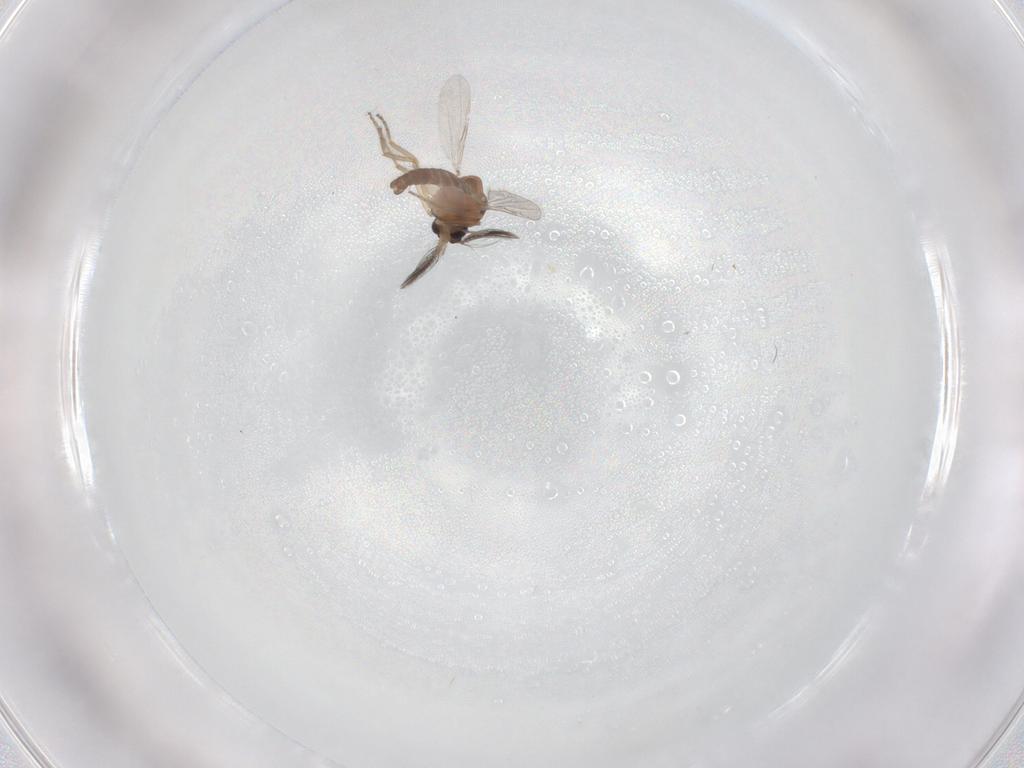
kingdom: Animalia
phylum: Arthropoda
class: Insecta
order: Diptera
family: Ceratopogonidae
